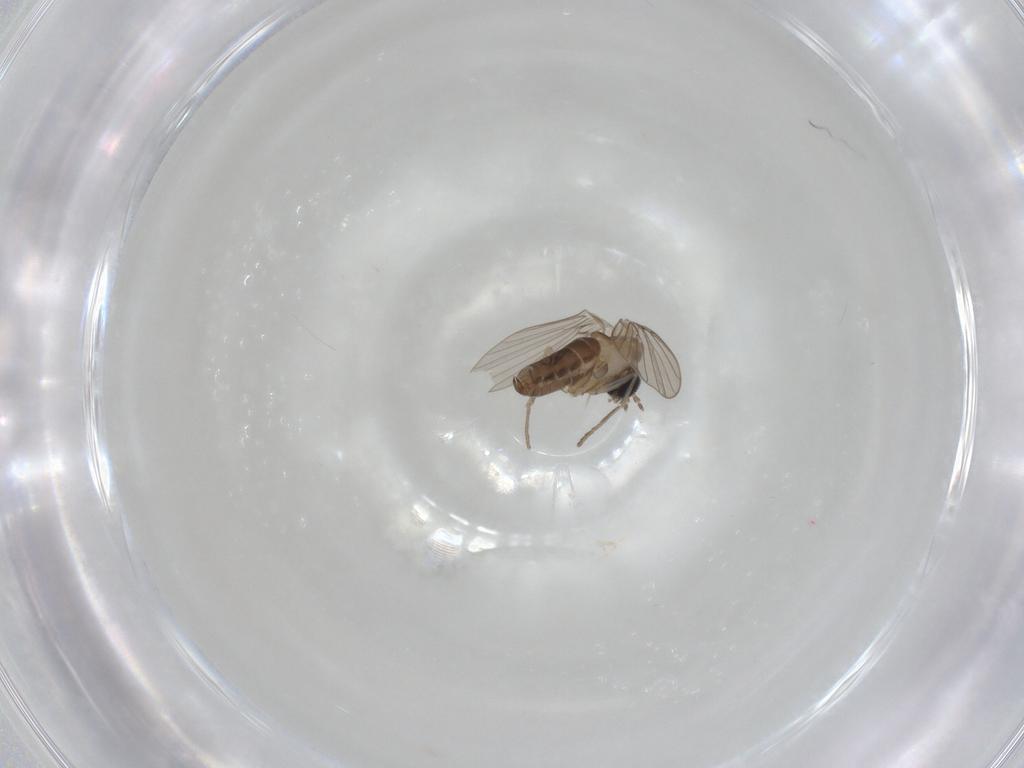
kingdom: Animalia
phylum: Arthropoda
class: Insecta
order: Diptera
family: Psychodidae
